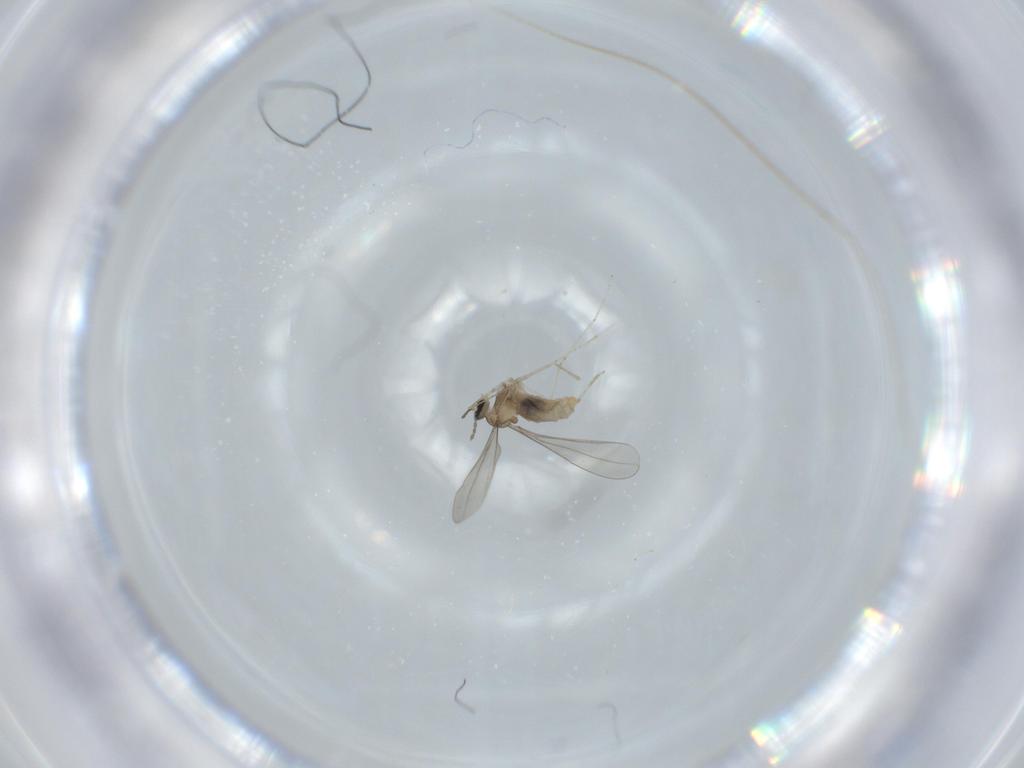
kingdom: Animalia
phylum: Arthropoda
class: Insecta
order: Diptera
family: Cecidomyiidae
